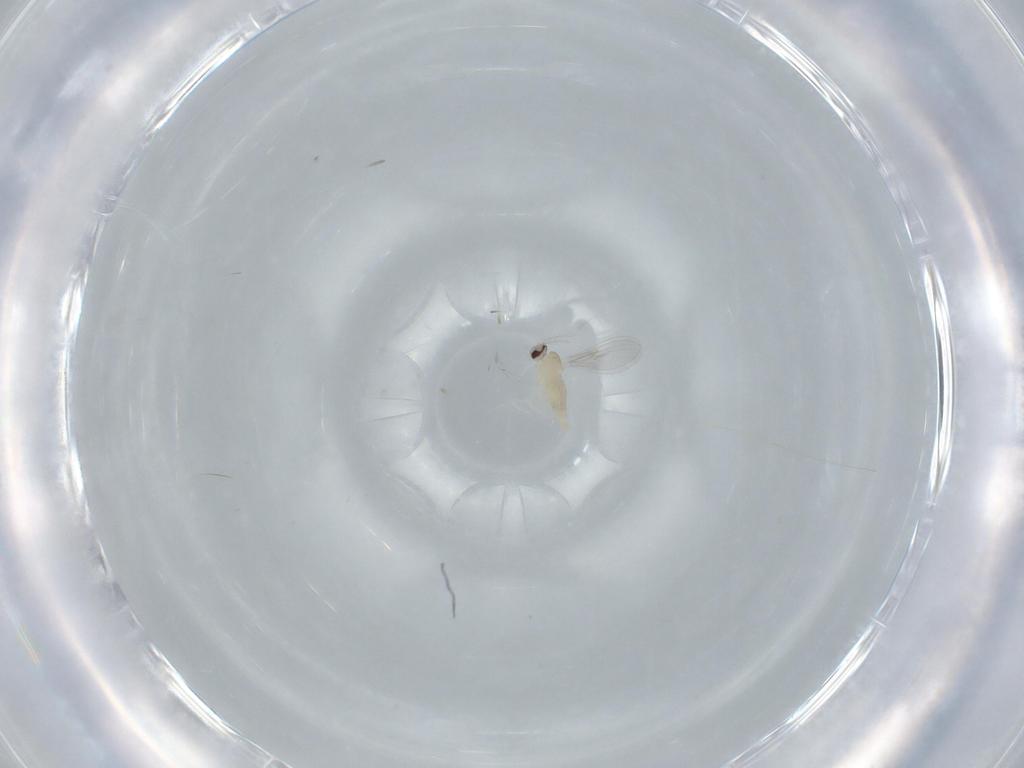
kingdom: Animalia
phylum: Arthropoda
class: Insecta
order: Diptera
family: Cecidomyiidae
